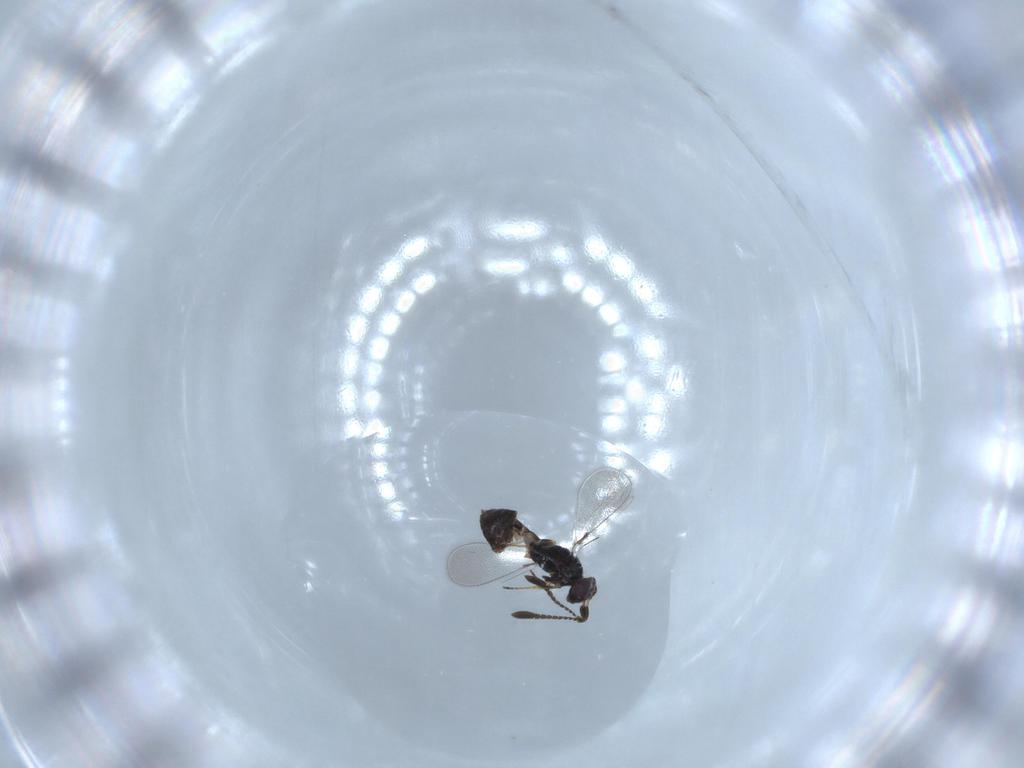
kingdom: Animalia
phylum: Arthropoda
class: Insecta
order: Hymenoptera
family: Mymaridae
